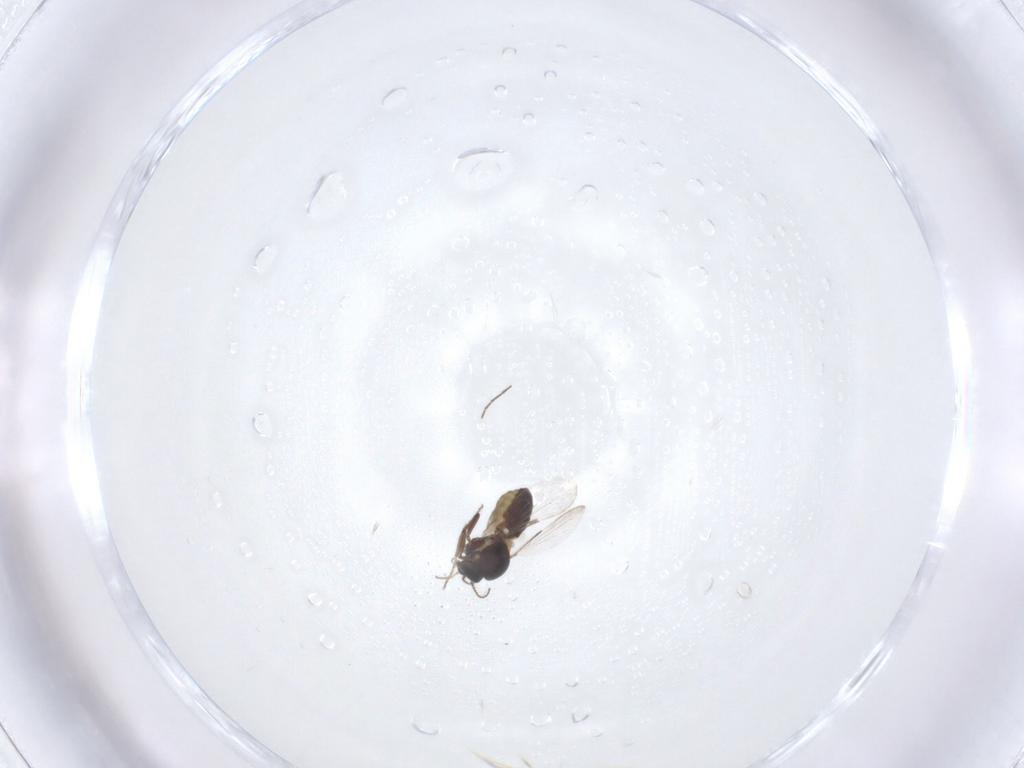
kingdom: Animalia
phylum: Arthropoda
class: Insecta
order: Diptera
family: Ceratopogonidae
